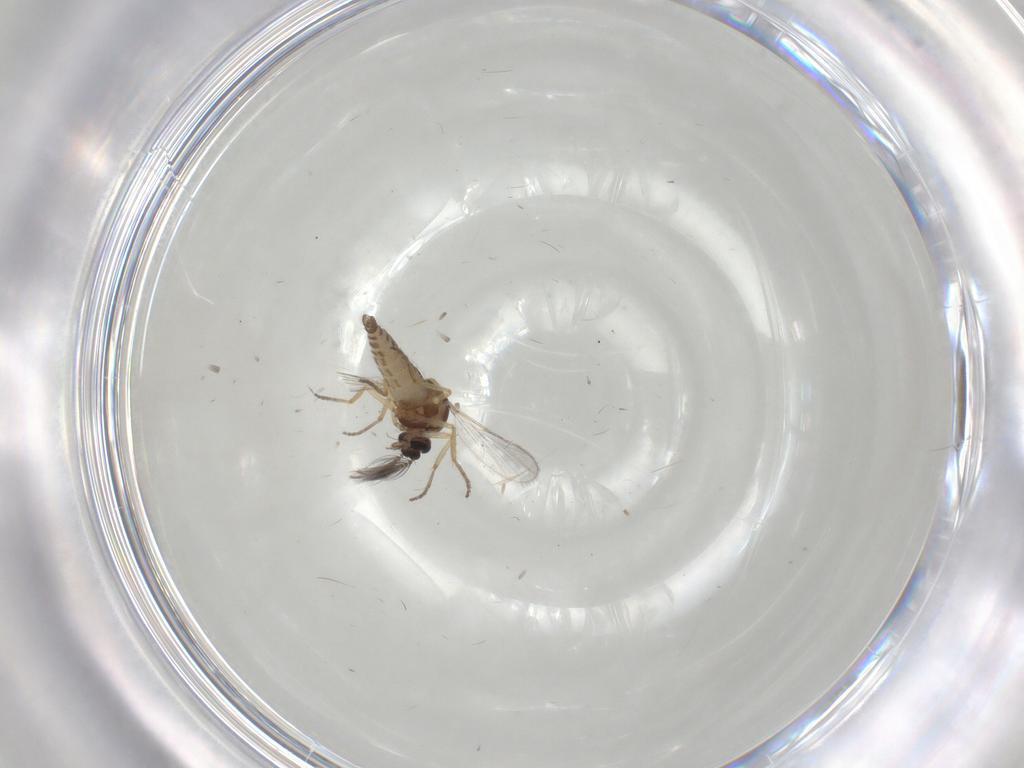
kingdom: Animalia
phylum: Arthropoda
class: Insecta
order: Diptera
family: Ceratopogonidae
